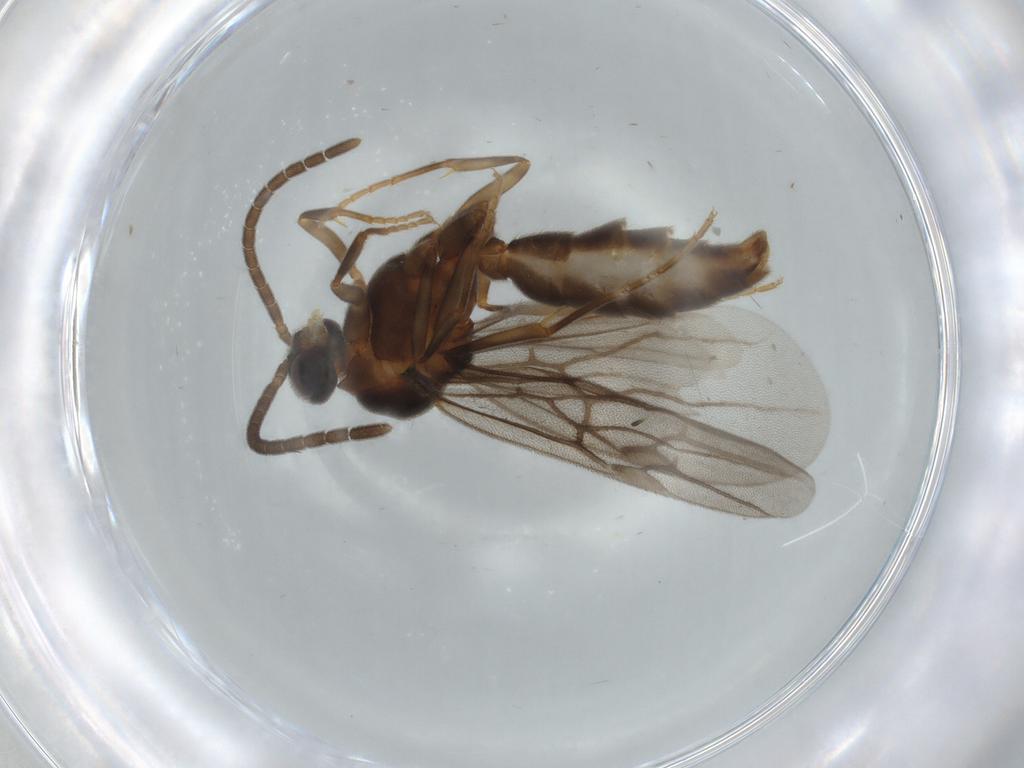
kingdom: Animalia
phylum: Arthropoda
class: Insecta
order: Hymenoptera
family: Formicidae
